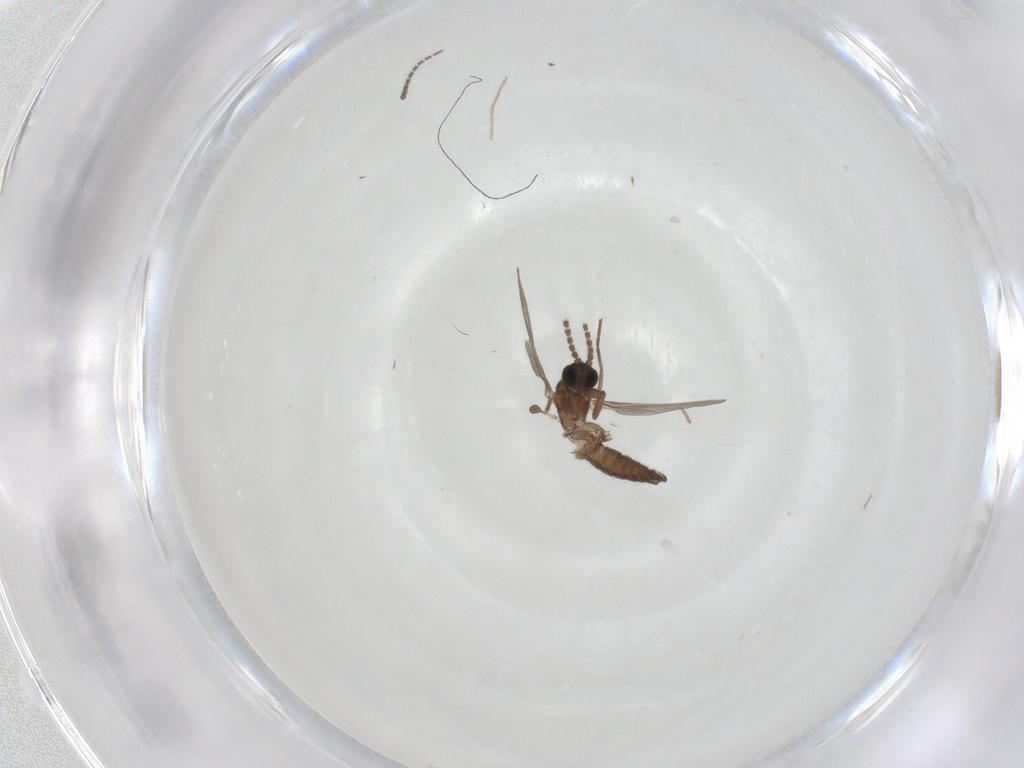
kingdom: Animalia
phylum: Arthropoda
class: Insecta
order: Diptera
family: Sciaridae
